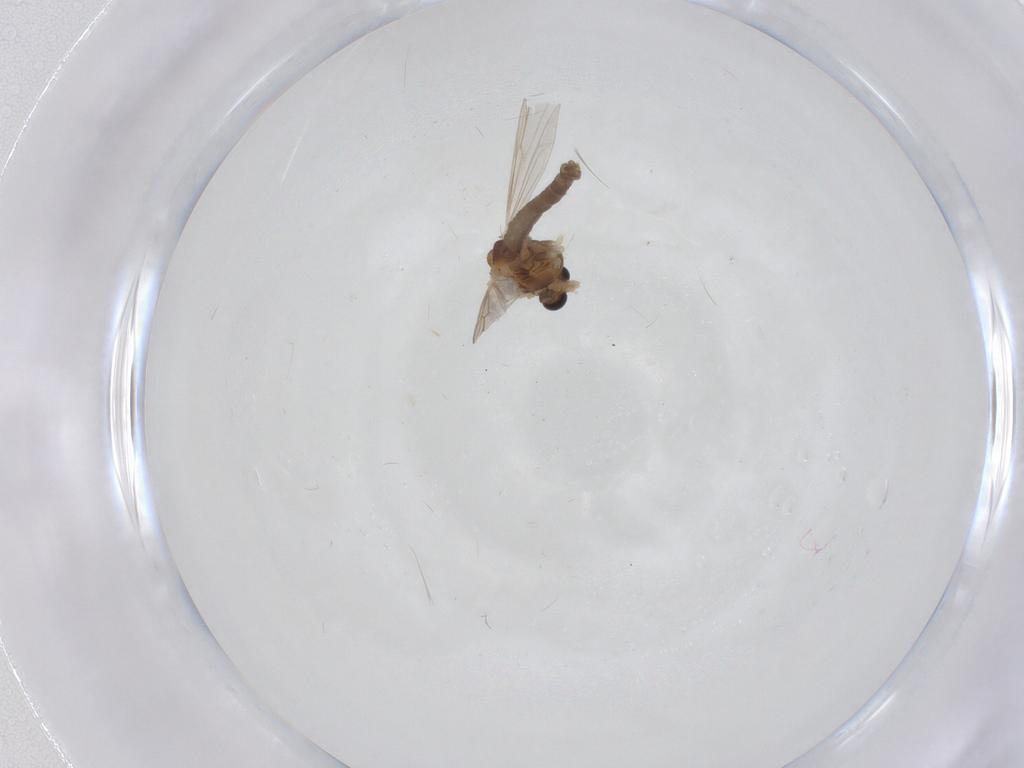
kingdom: Animalia
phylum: Arthropoda
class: Insecta
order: Diptera
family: Chironomidae
